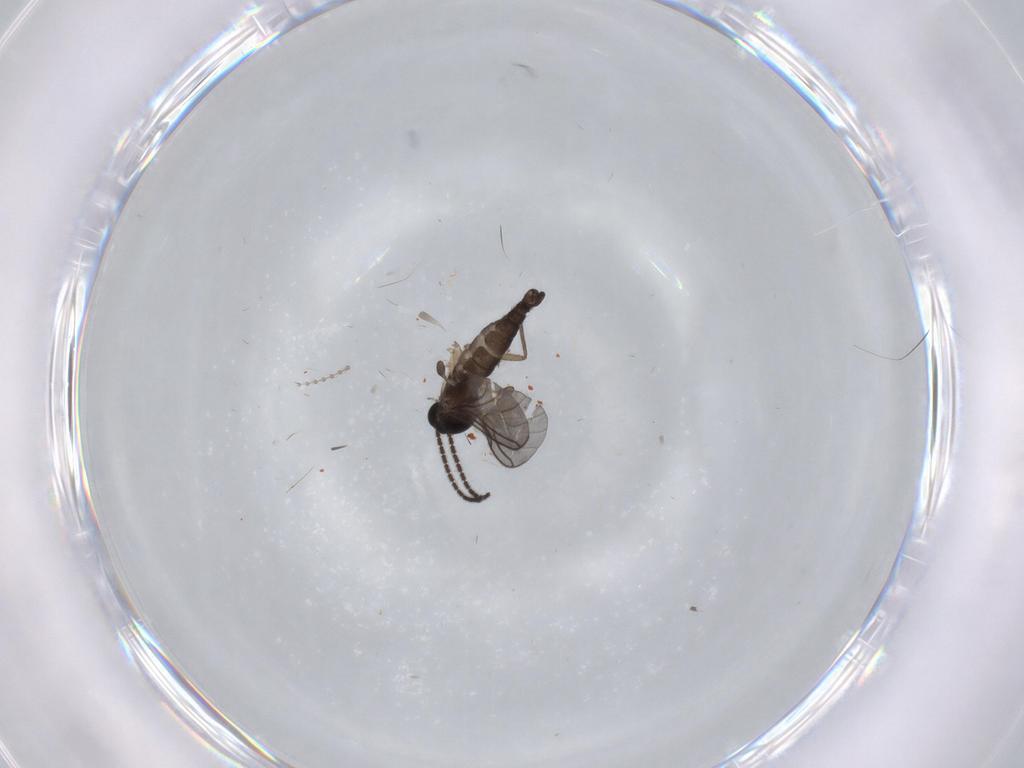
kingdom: Animalia
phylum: Arthropoda
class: Insecta
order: Diptera
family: Sciaridae
